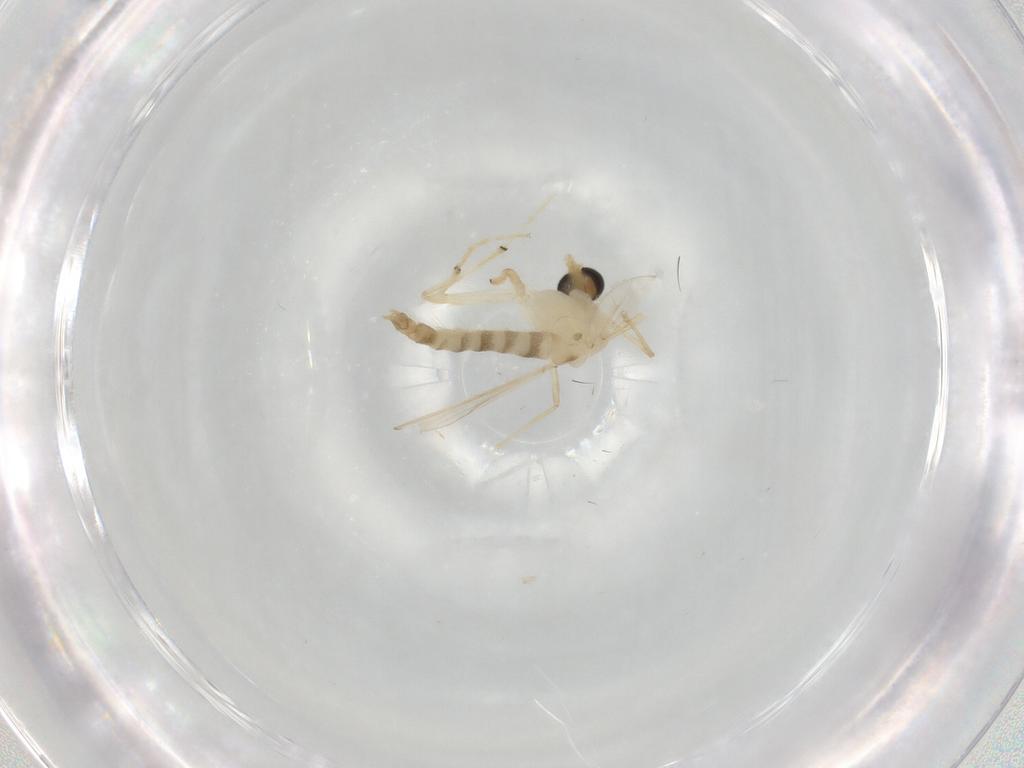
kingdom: Animalia
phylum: Arthropoda
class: Insecta
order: Diptera
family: Chironomidae
